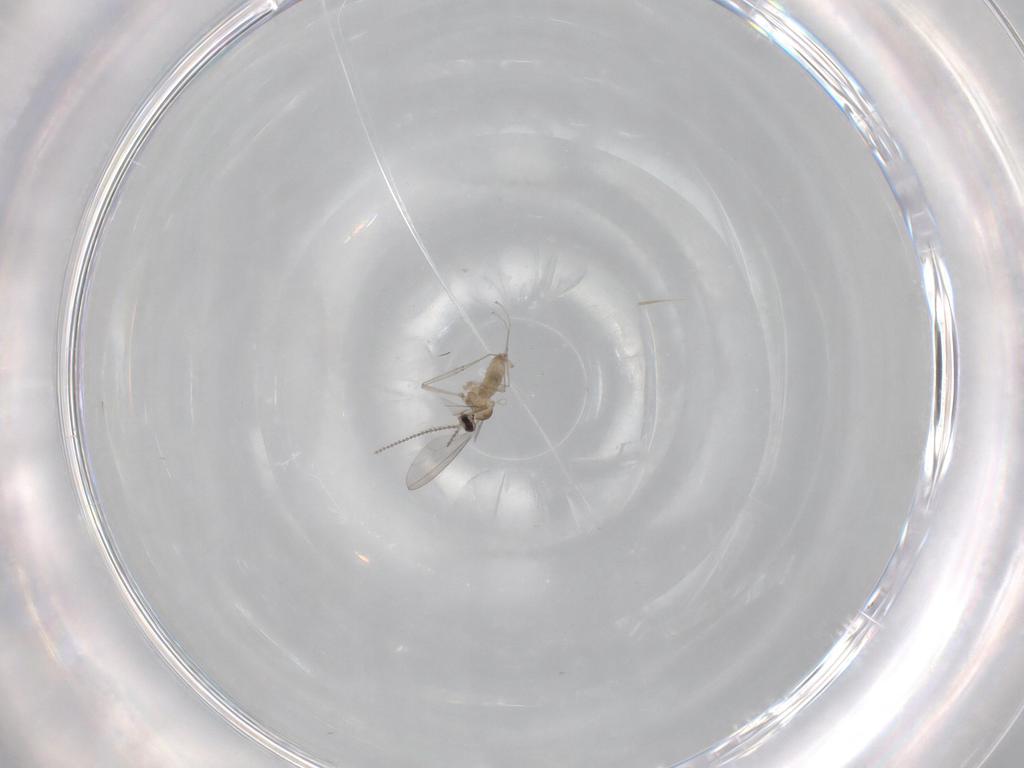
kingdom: Animalia
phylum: Arthropoda
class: Insecta
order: Diptera
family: Cecidomyiidae
